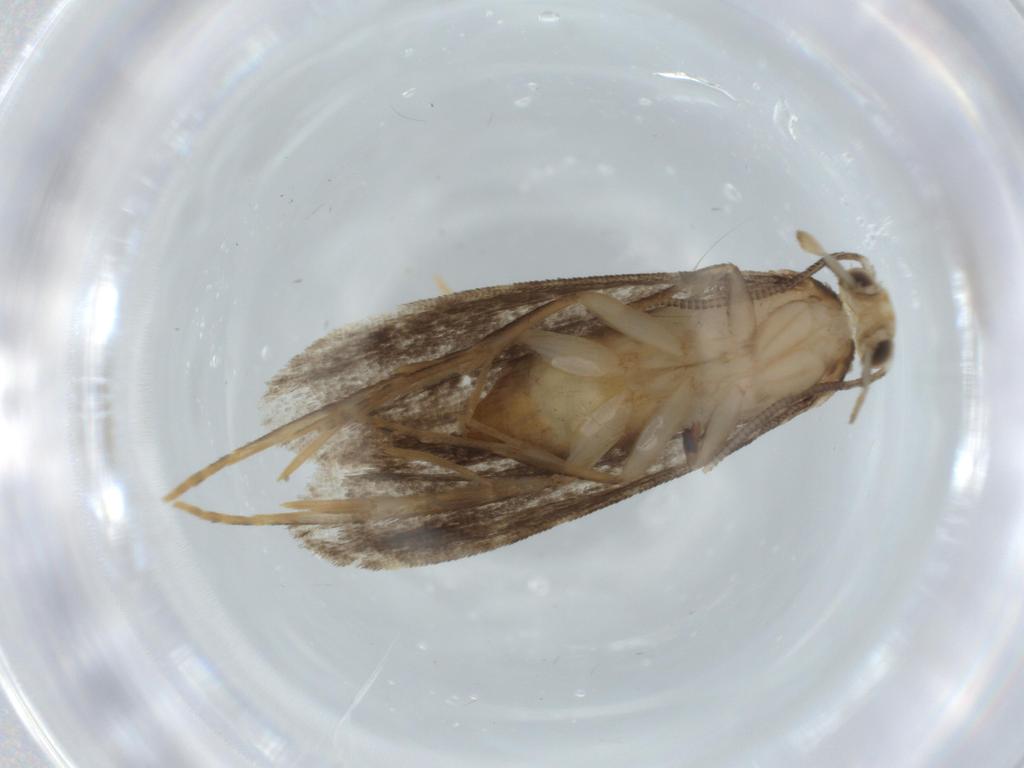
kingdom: Animalia
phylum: Arthropoda
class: Insecta
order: Lepidoptera
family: Dryadaulidae
